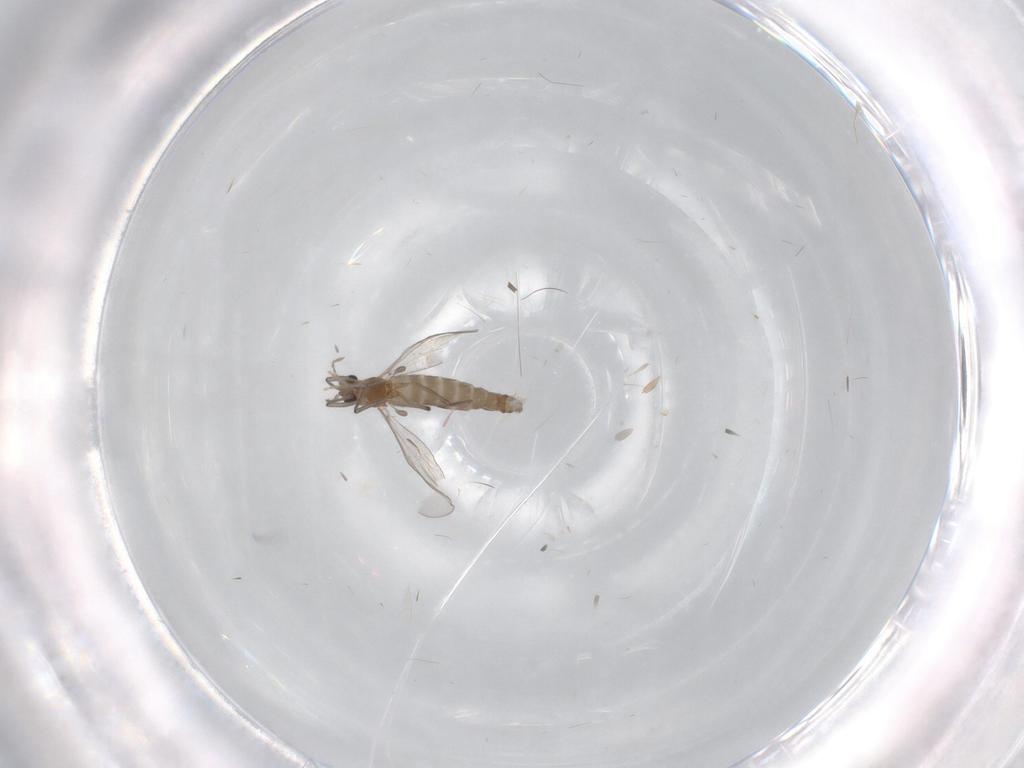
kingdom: Animalia
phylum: Arthropoda
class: Insecta
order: Diptera
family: Chironomidae
